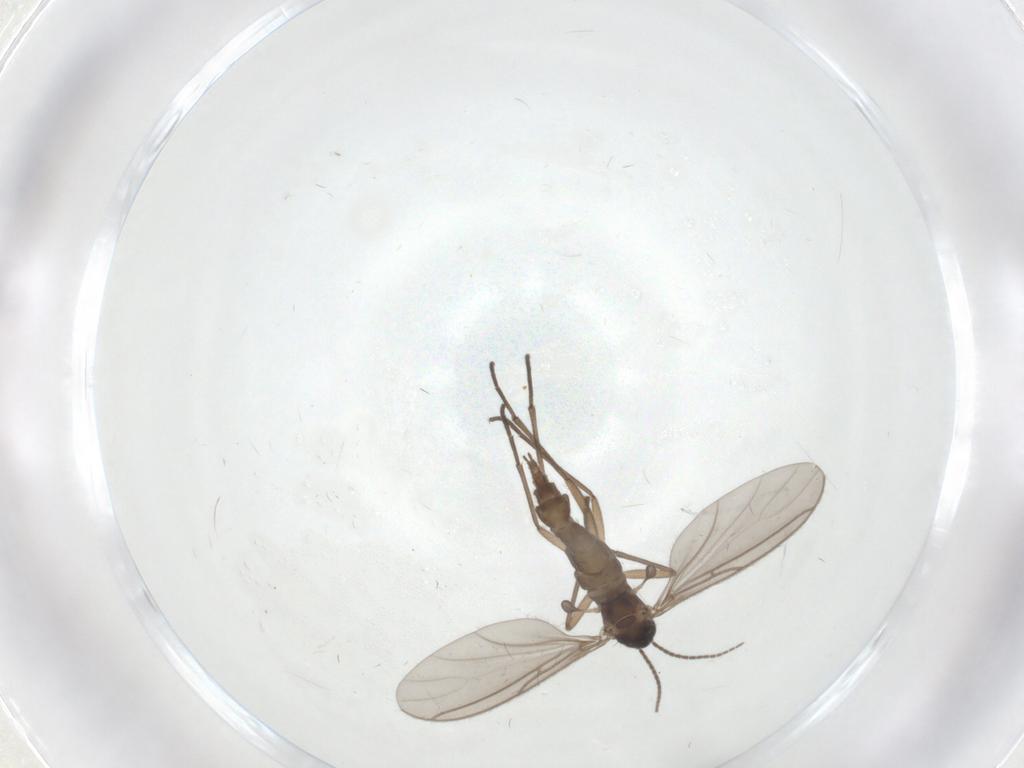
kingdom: Animalia
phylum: Arthropoda
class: Insecta
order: Diptera
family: Sciaridae
